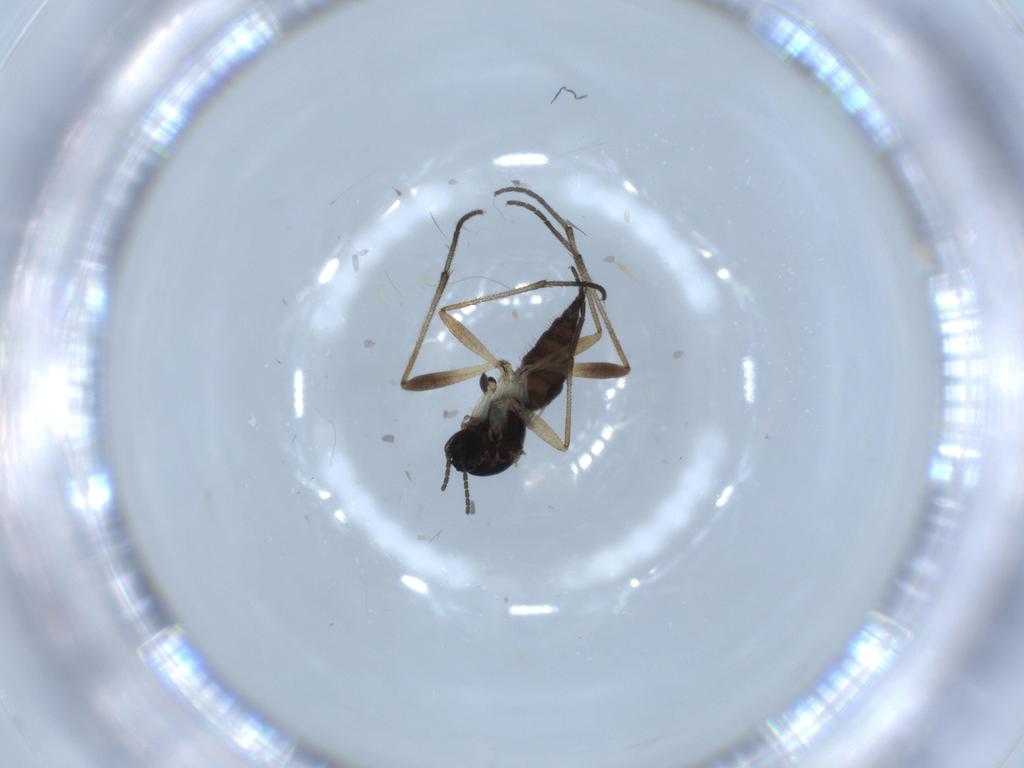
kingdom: Animalia
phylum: Arthropoda
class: Insecta
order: Diptera
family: Sciaridae
